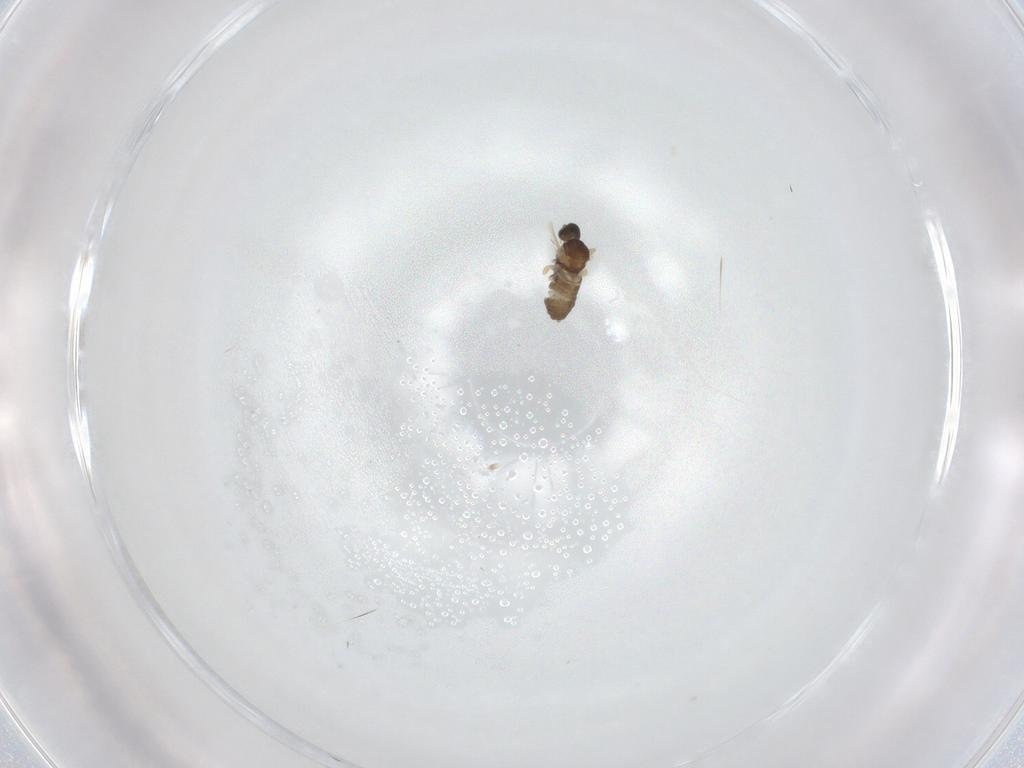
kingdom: Animalia
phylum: Arthropoda
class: Insecta
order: Diptera
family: Cecidomyiidae
